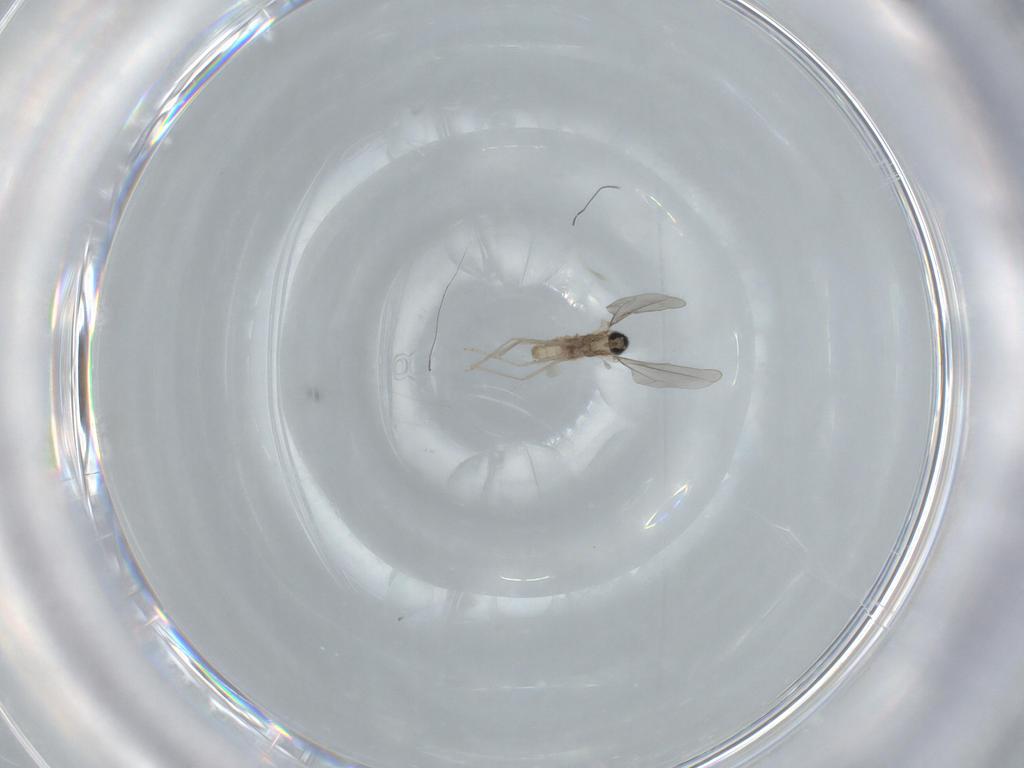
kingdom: Animalia
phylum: Arthropoda
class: Insecta
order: Diptera
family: Cecidomyiidae
